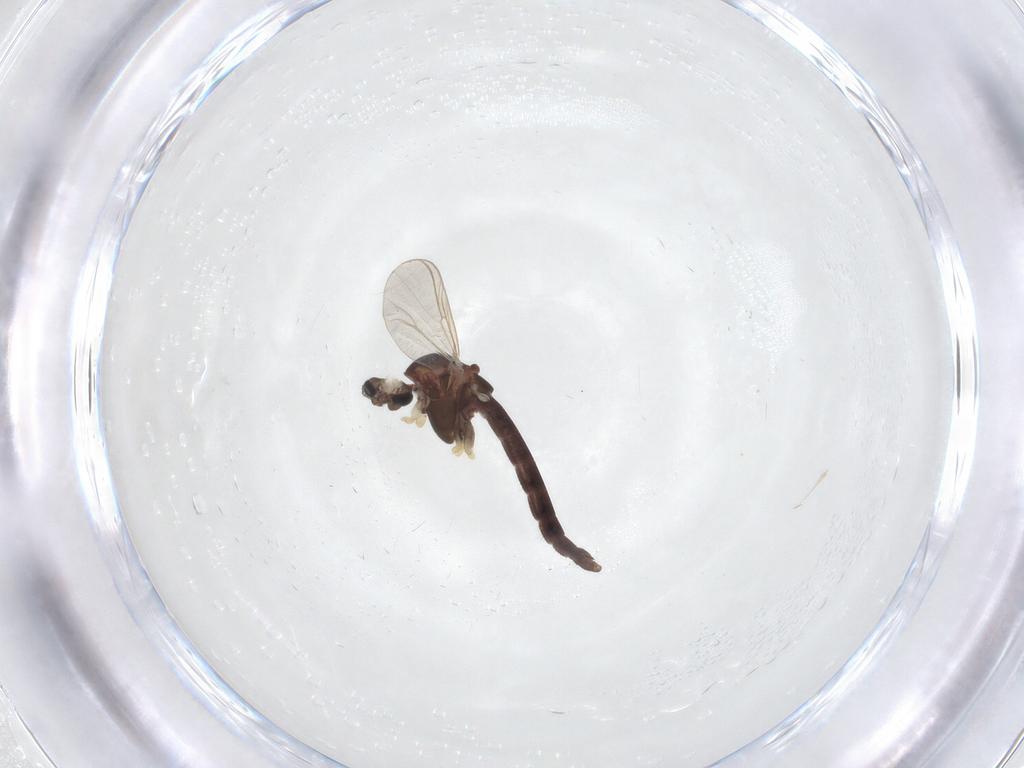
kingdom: Animalia
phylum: Arthropoda
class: Insecta
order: Diptera
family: Chironomidae
